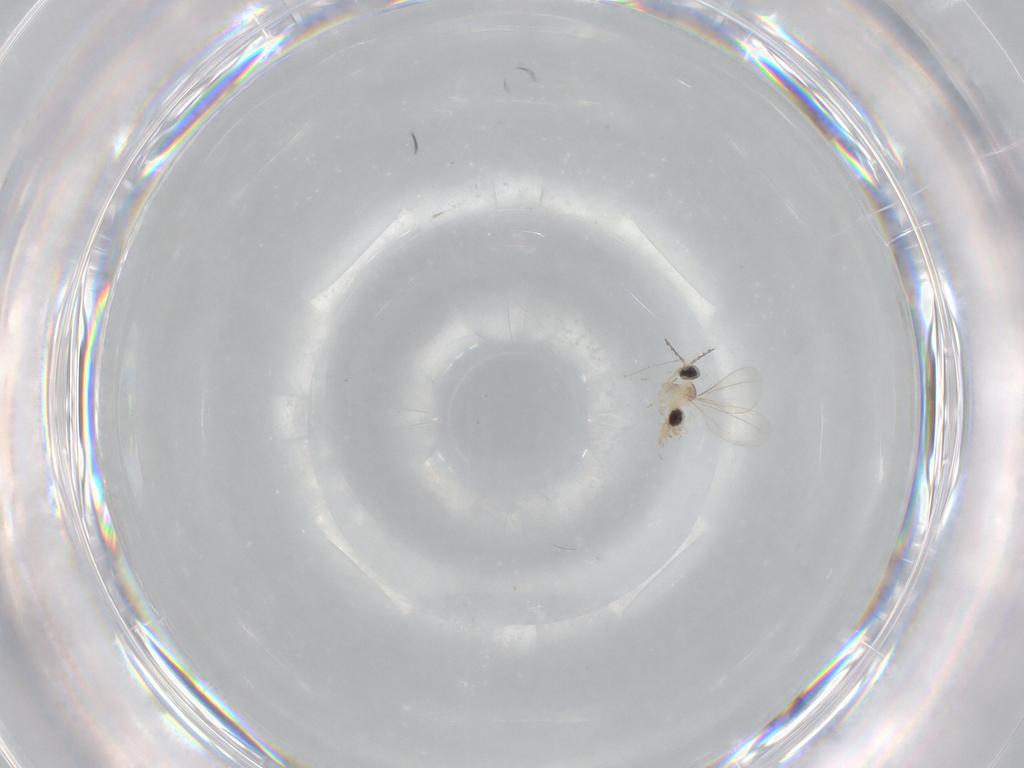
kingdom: Animalia
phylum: Arthropoda
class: Insecta
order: Diptera
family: Cecidomyiidae
